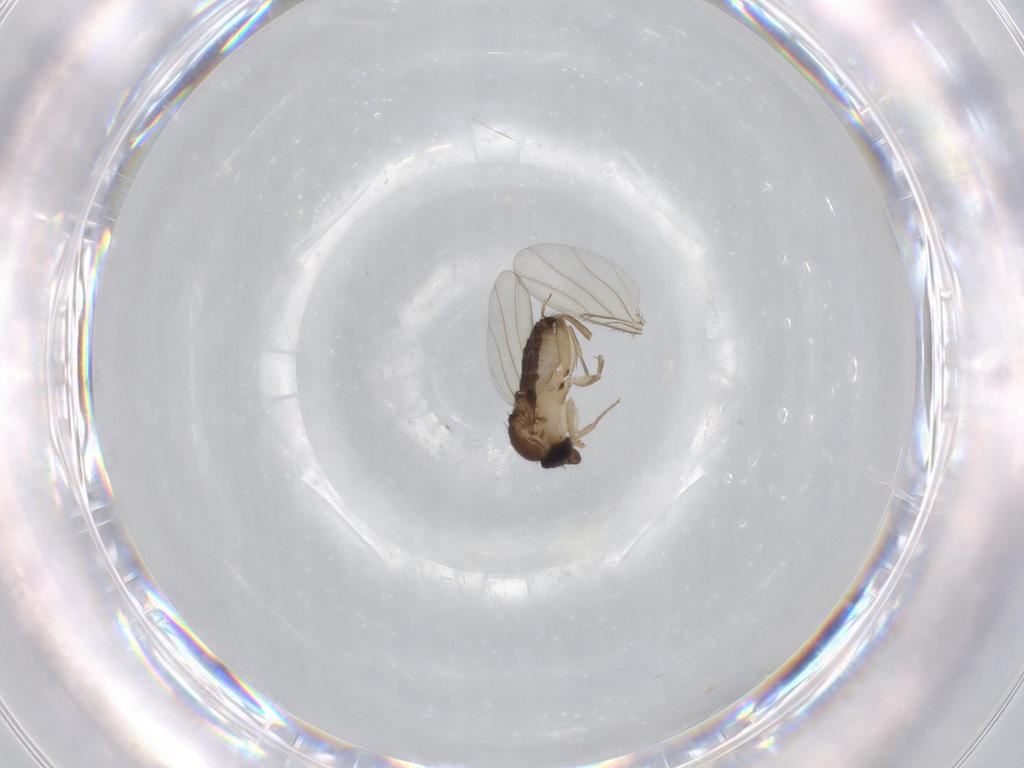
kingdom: Animalia
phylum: Arthropoda
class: Insecta
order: Diptera
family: Phoridae
